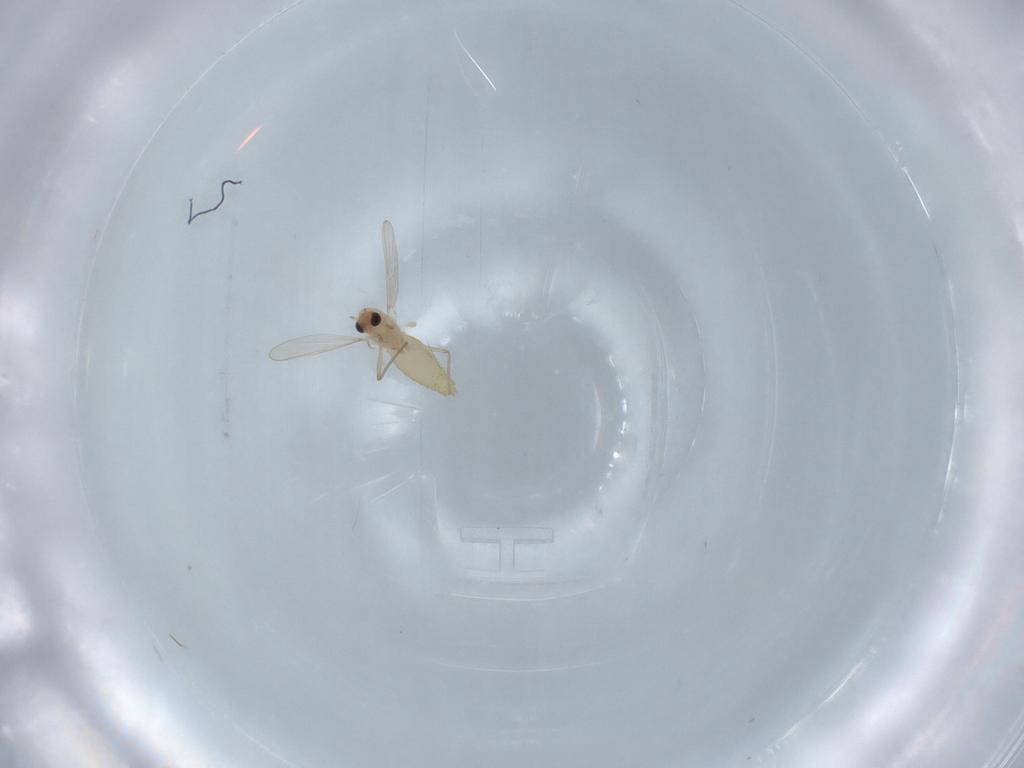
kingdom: Animalia
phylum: Arthropoda
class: Insecta
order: Diptera
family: Chironomidae
